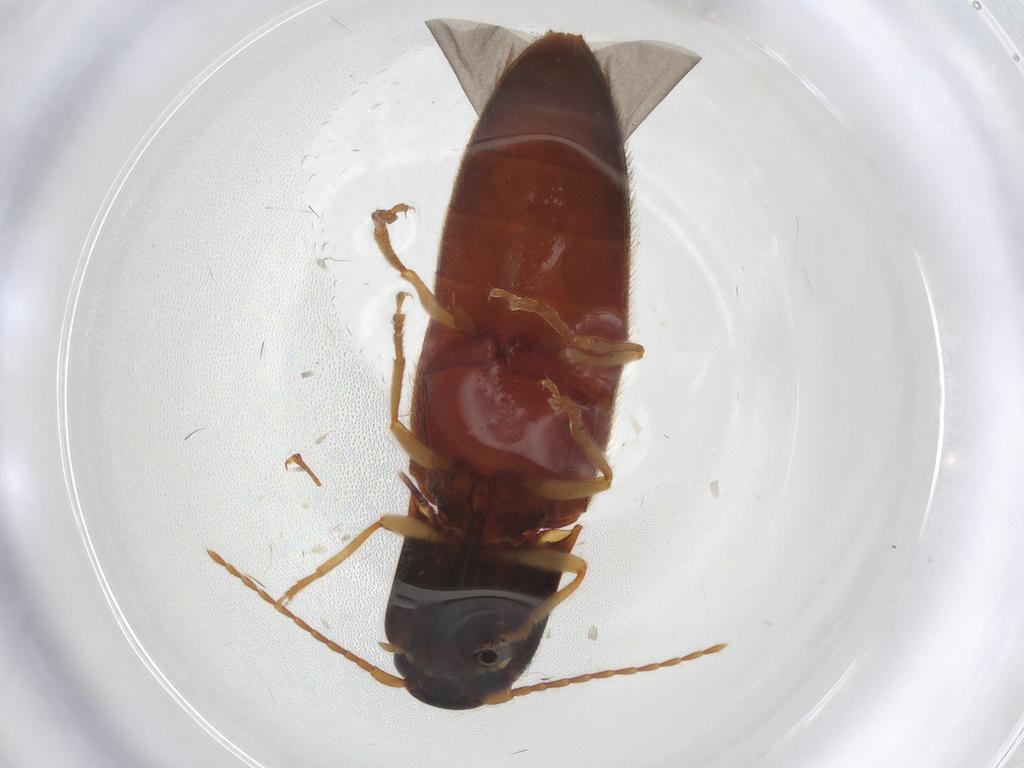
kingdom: Animalia
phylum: Arthropoda
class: Insecta
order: Coleoptera
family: Elateridae
